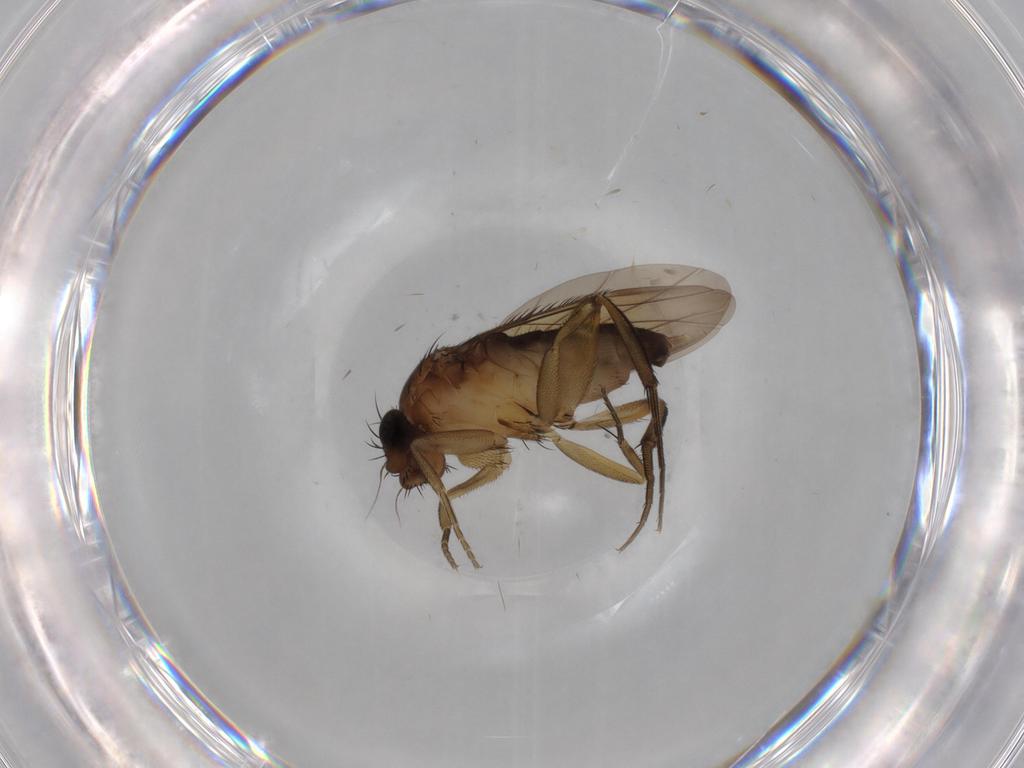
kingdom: Animalia
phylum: Arthropoda
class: Insecta
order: Diptera
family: Phoridae
